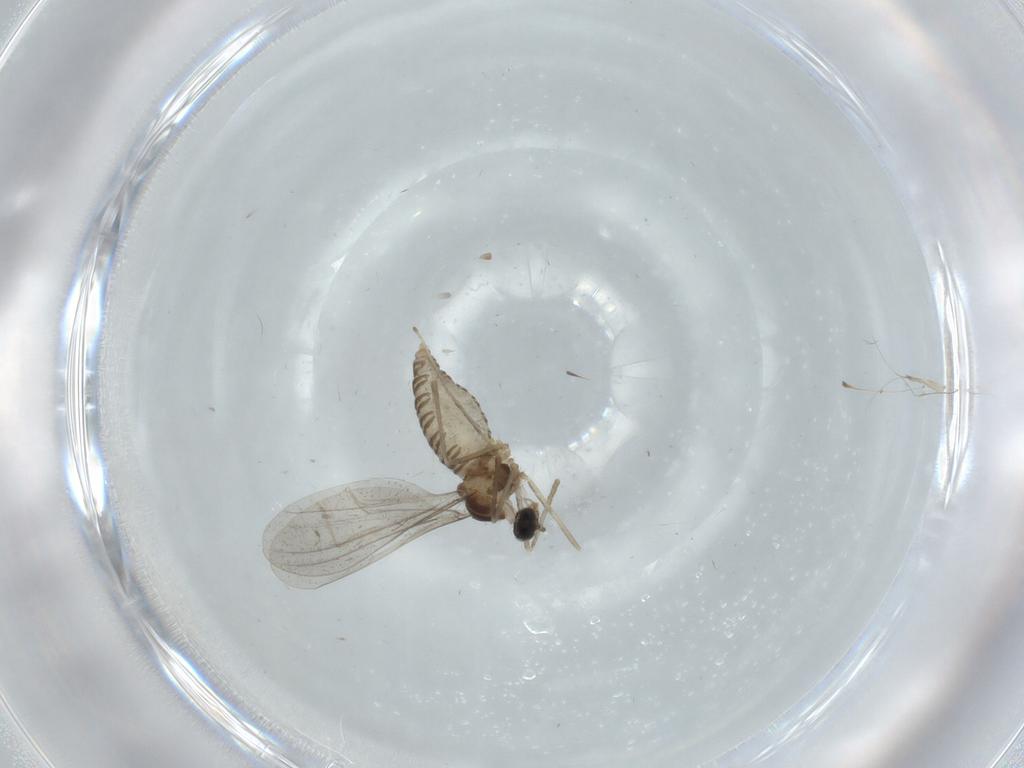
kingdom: Animalia
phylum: Arthropoda
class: Insecta
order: Diptera
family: Cecidomyiidae
